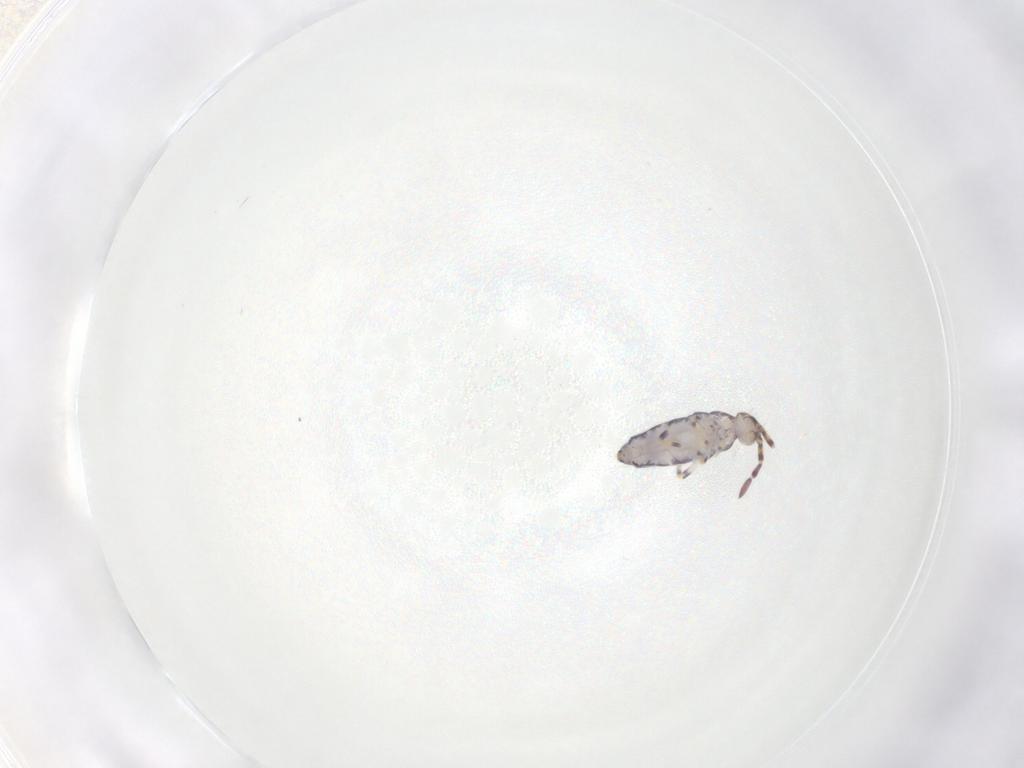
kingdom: Animalia
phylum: Arthropoda
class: Collembola
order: Entomobryomorpha
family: Entomobryidae
